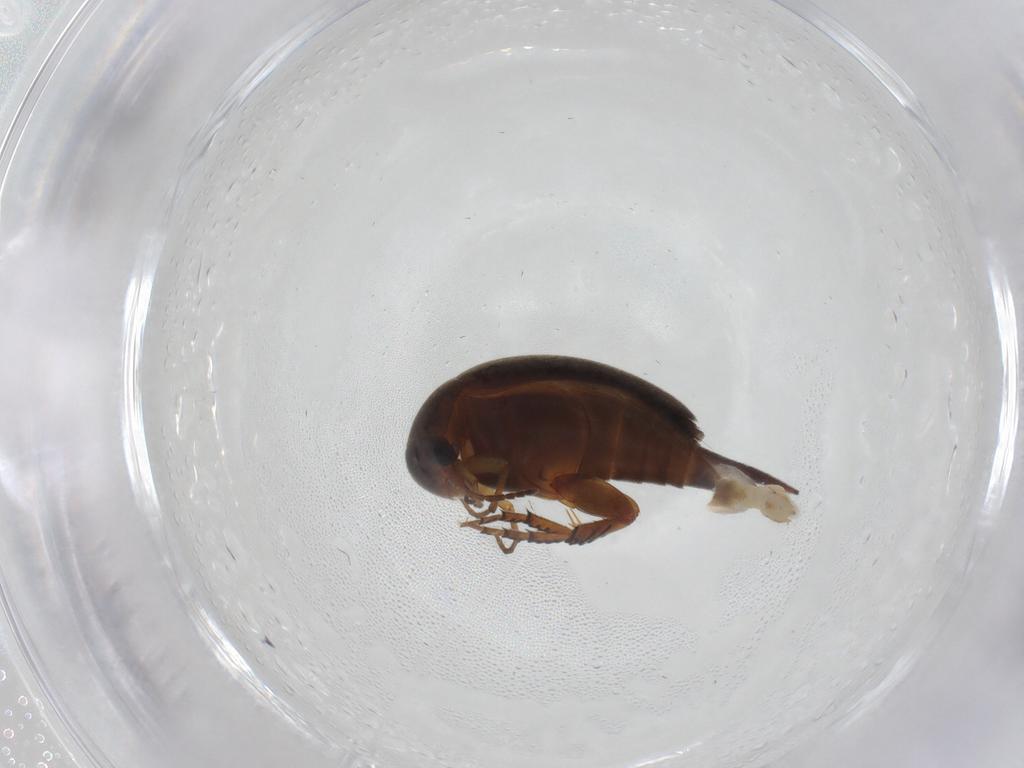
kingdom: Animalia
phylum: Arthropoda
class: Insecta
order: Coleoptera
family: Mordellidae
